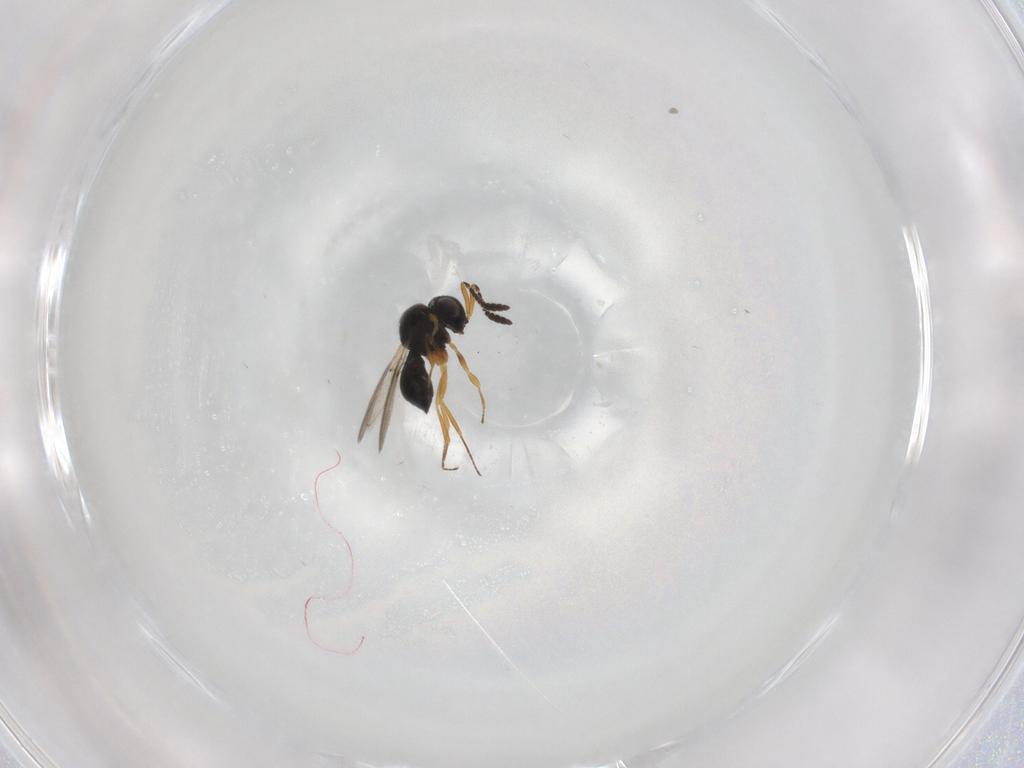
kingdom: Animalia
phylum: Arthropoda
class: Insecta
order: Hymenoptera
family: Scelionidae
